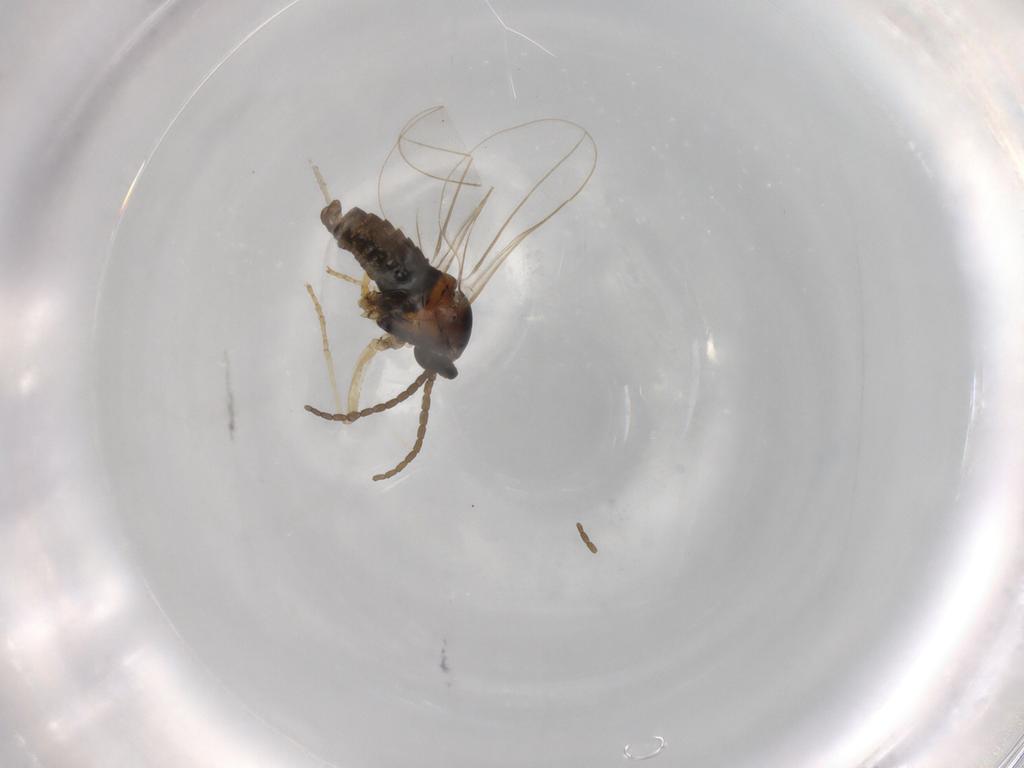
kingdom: Animalia
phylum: Arthropoda
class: Insecta
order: Diptera
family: Cecidomyiidae
